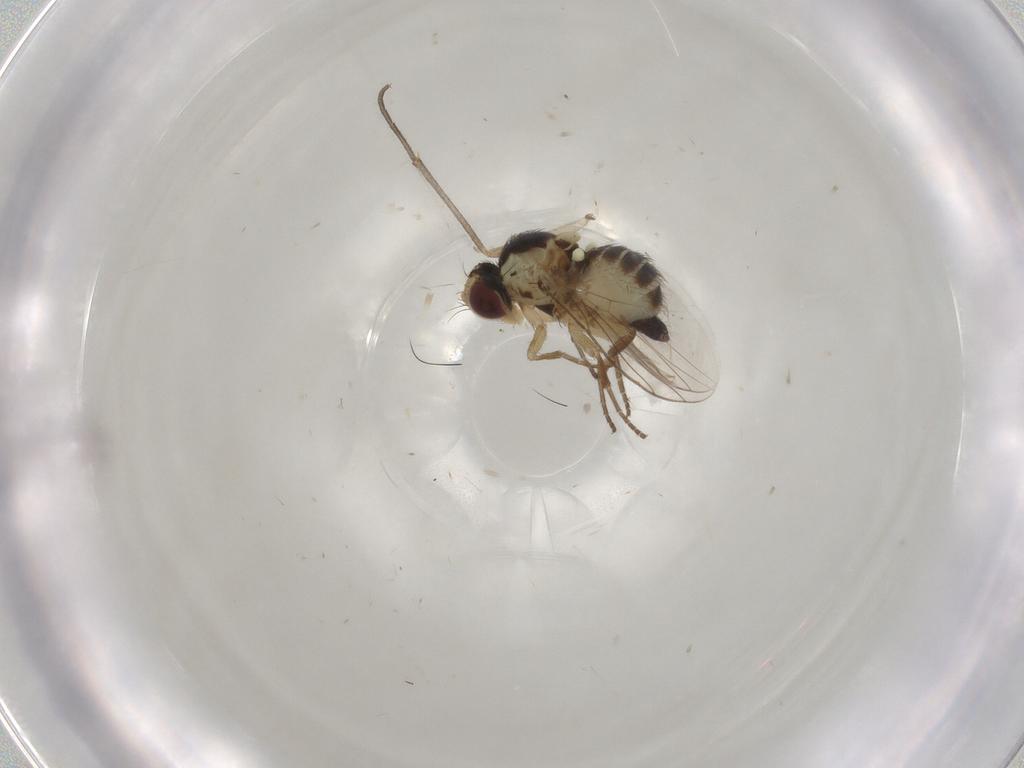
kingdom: Animalia
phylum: Arthropoda
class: Insecta
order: Diptera
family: Agromyzidae
